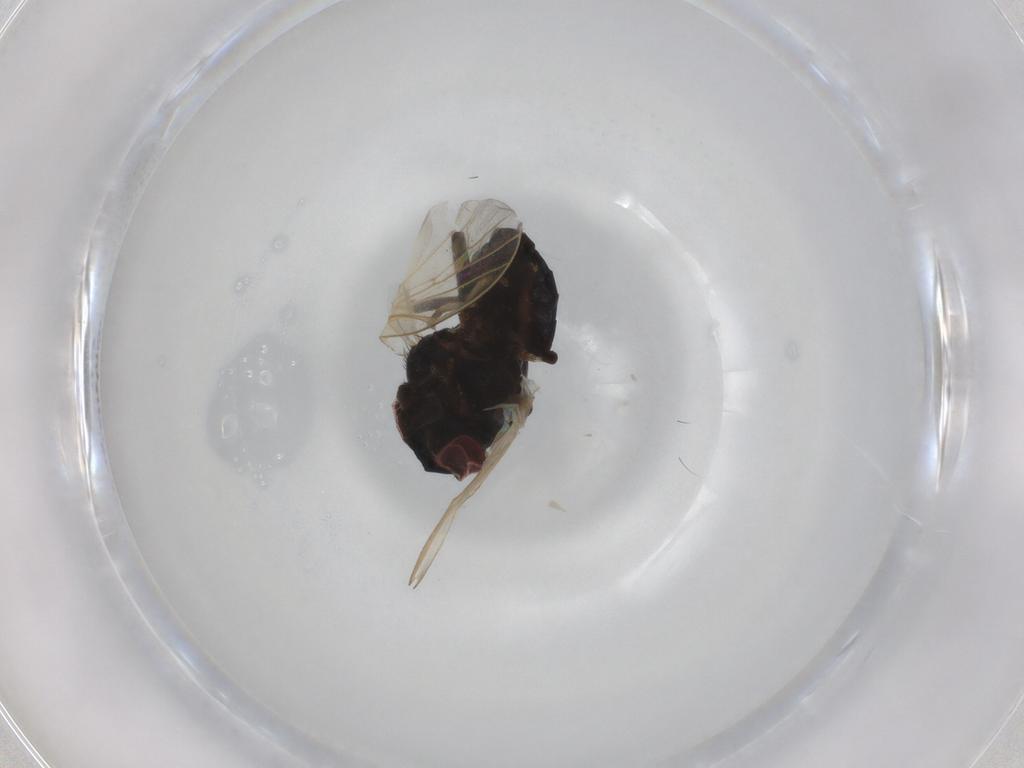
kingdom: Animalia
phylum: Arthropoda
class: Insecta
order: Diptera
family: Lonchaeidae
